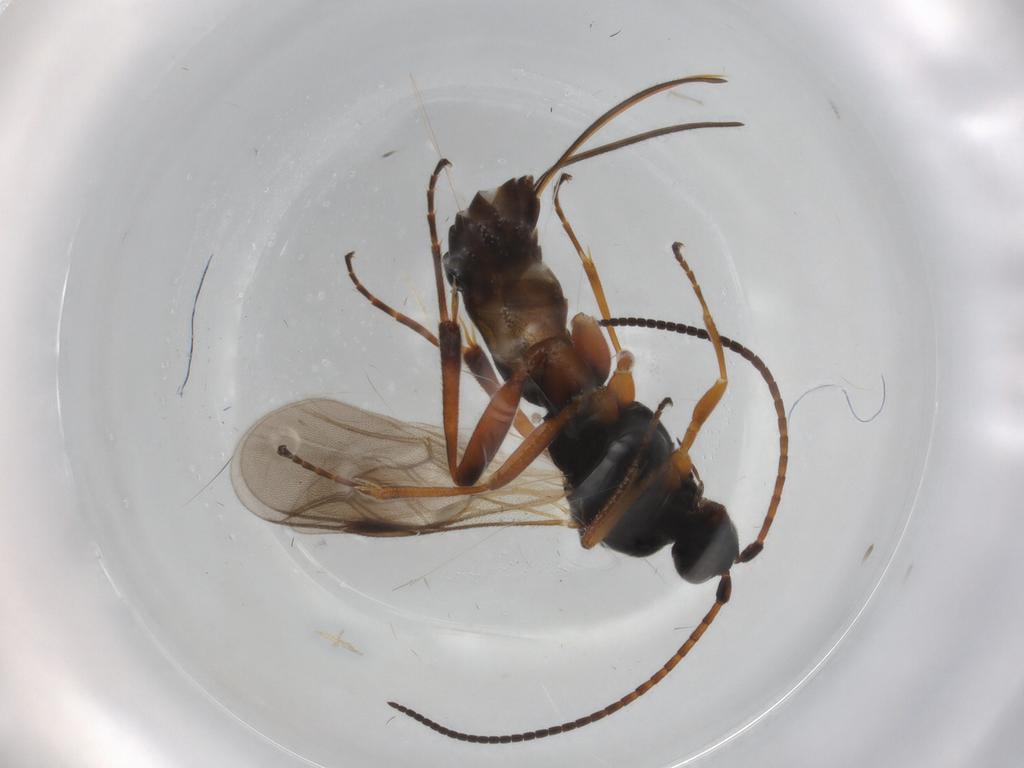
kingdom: Animalia
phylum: Arthropoda
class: Insecta
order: Hymenoptera
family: Braconidae
